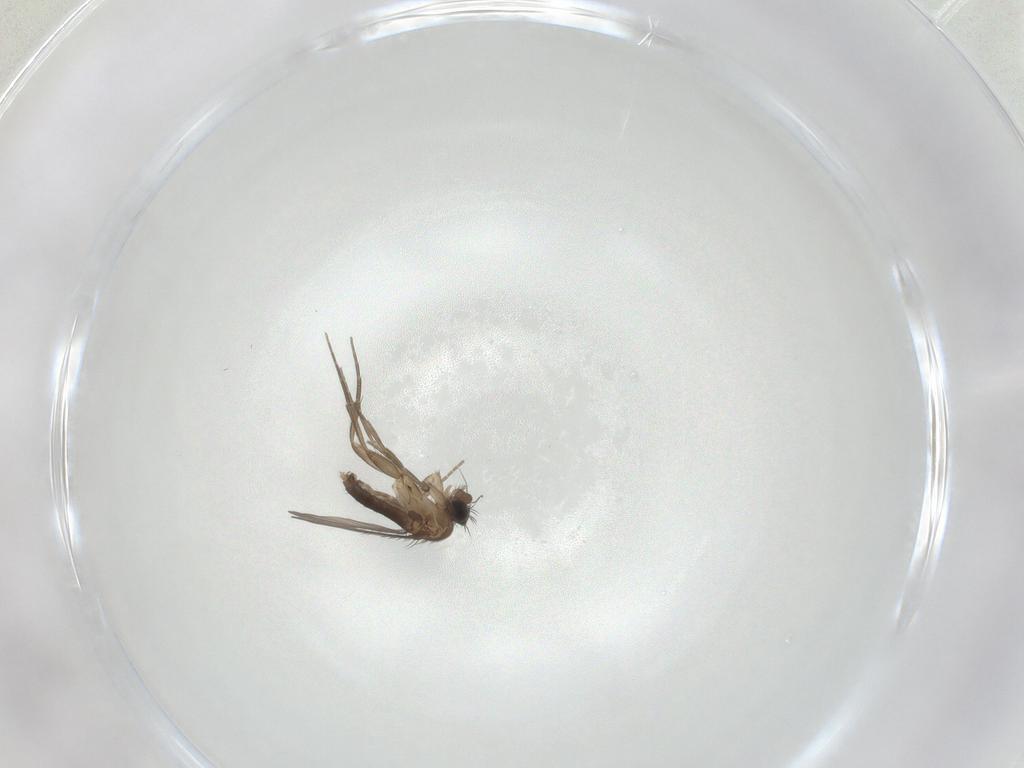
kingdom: Animalia
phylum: Arthropoda
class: Insecta
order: Diptera
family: Phoridae
